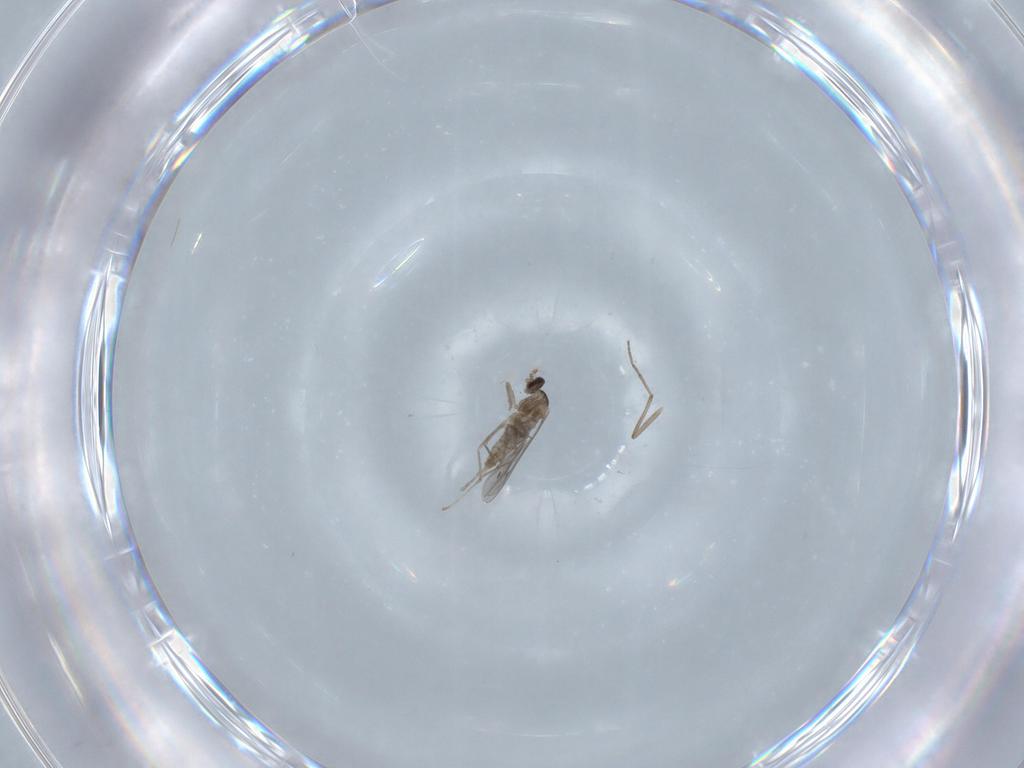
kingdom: Animalia
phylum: Arthropoda
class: Insecta
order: Diptera
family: Cecidomyiidae
